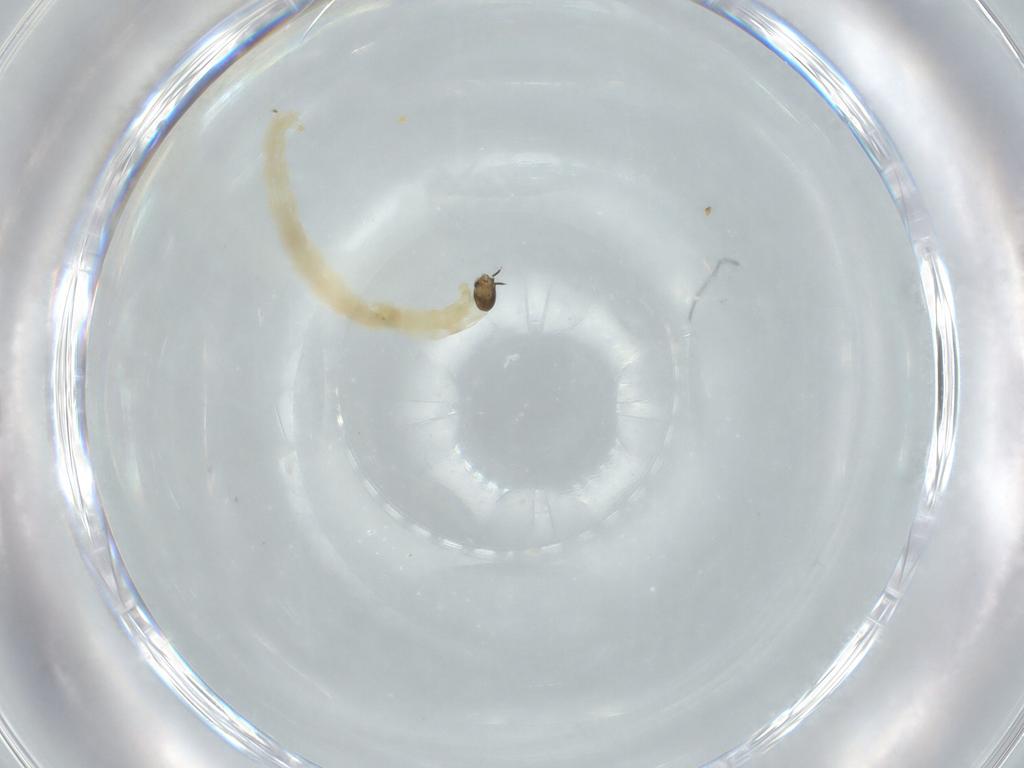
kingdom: Animalia
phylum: Arthropoda
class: Insecta
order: Diptera
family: Chironomidae
